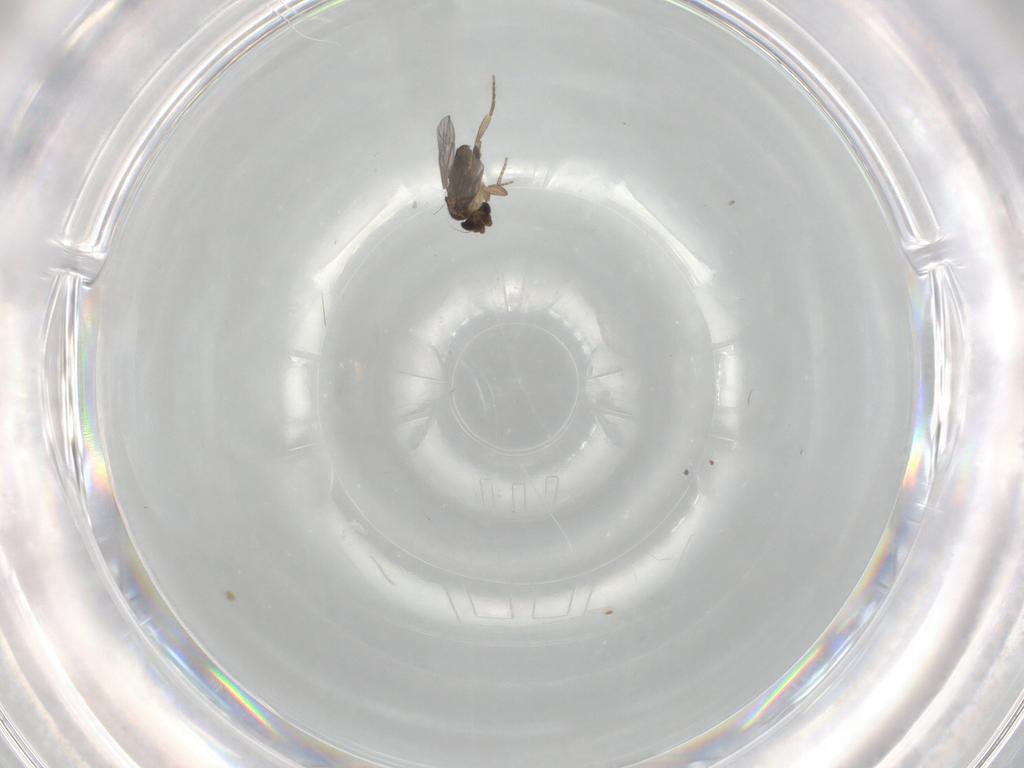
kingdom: Animalia
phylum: Arthropoda
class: Insecta
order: Diptera
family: Phoridae
